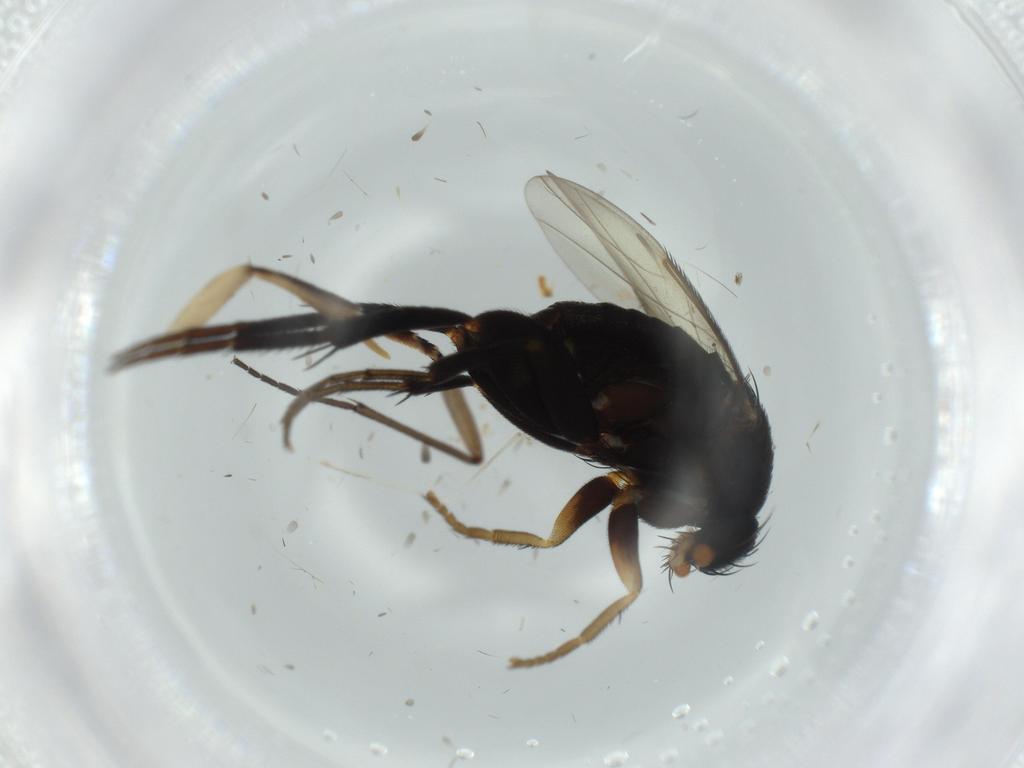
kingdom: Animalia
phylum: Arthropoda
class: Insecta
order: Diptera
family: Phoridae
